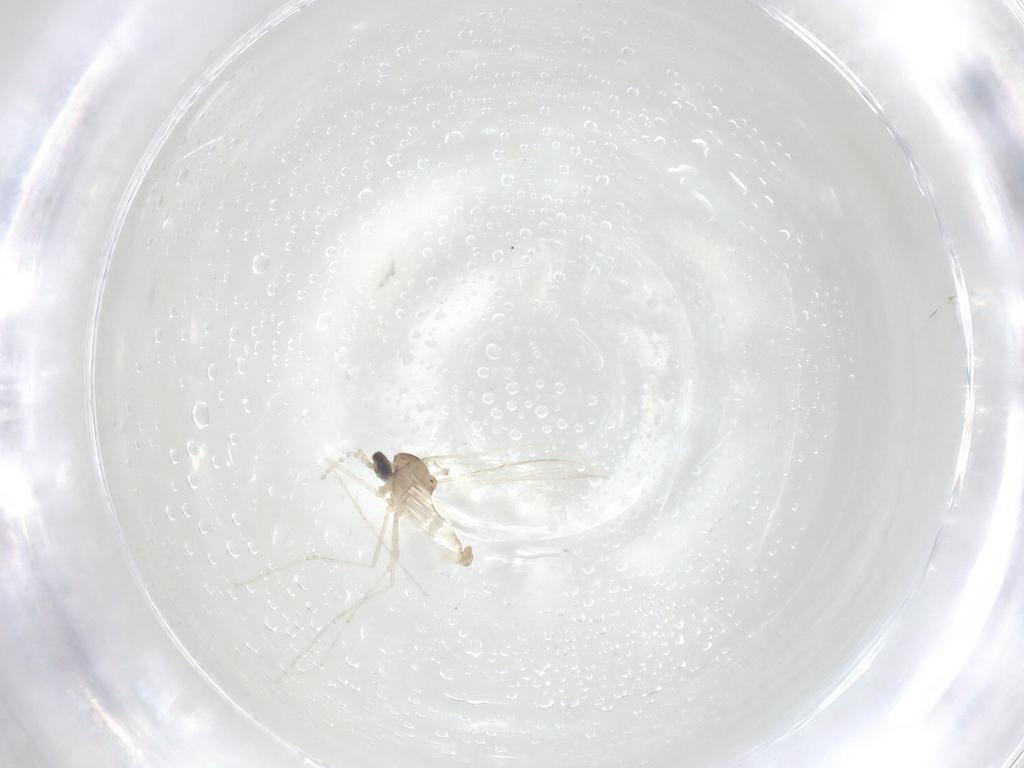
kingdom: Animalia
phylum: Arthropoda
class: Insecta
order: Diptera
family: Cecidomyiidae
